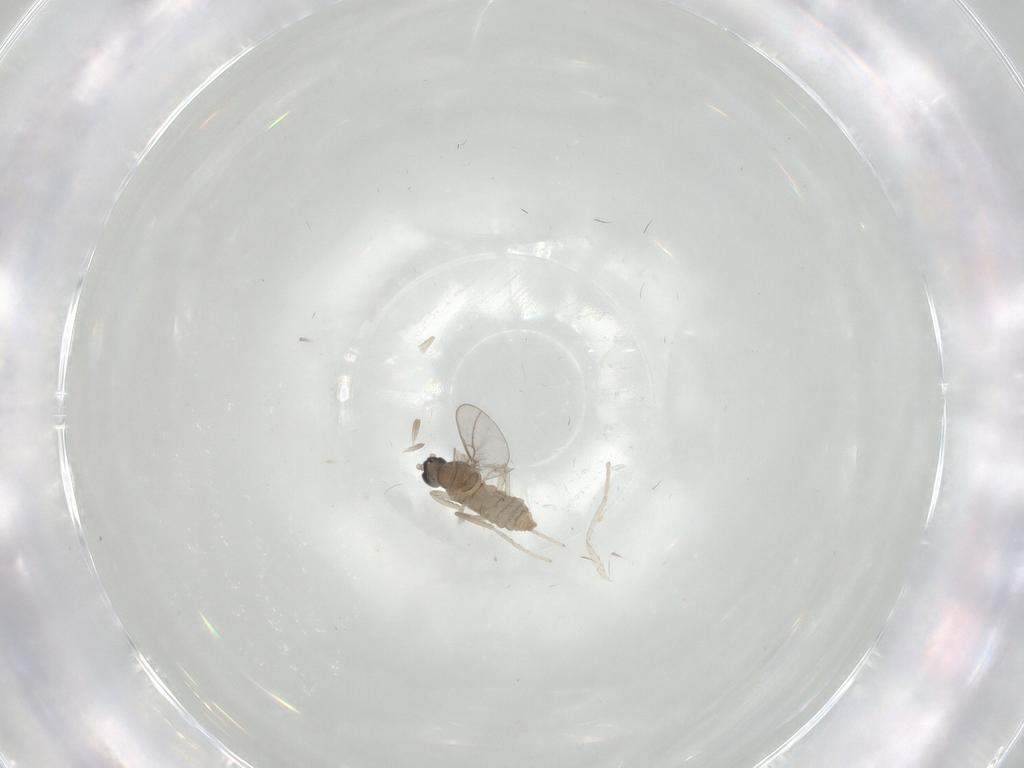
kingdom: Animalia
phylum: Arthropoda
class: Insecta
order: Diptera
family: Cecidomyiidae
